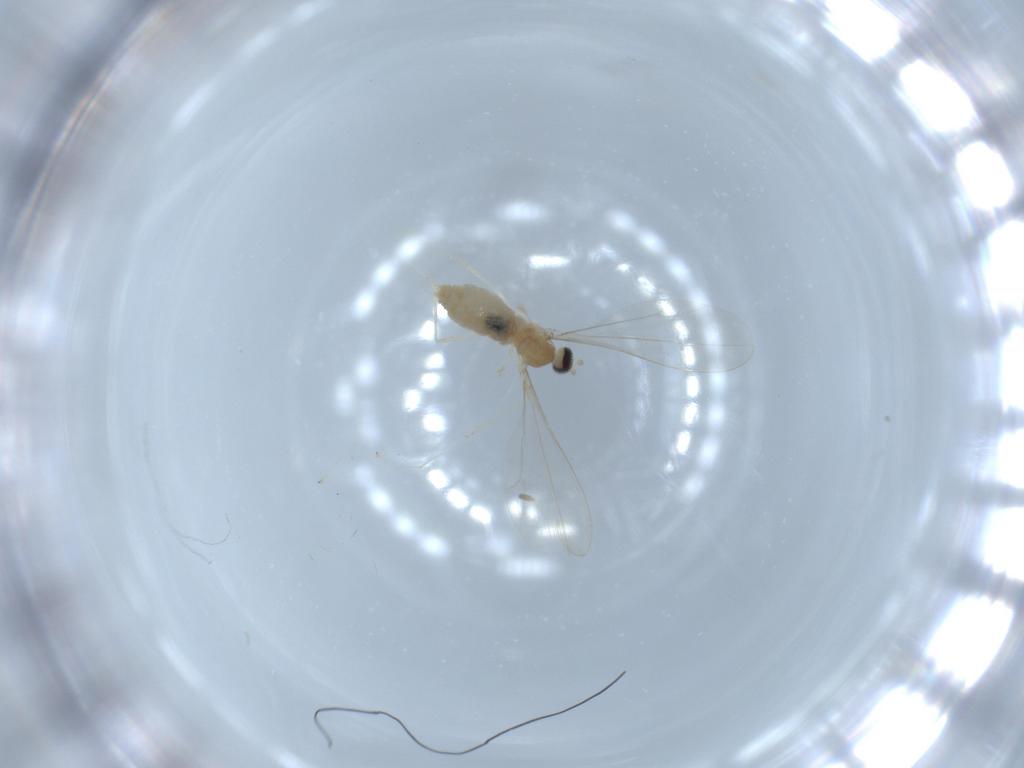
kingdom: Animalia
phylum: Arthropoda
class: Insecta
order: Diptera
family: Cecidomyiidae
